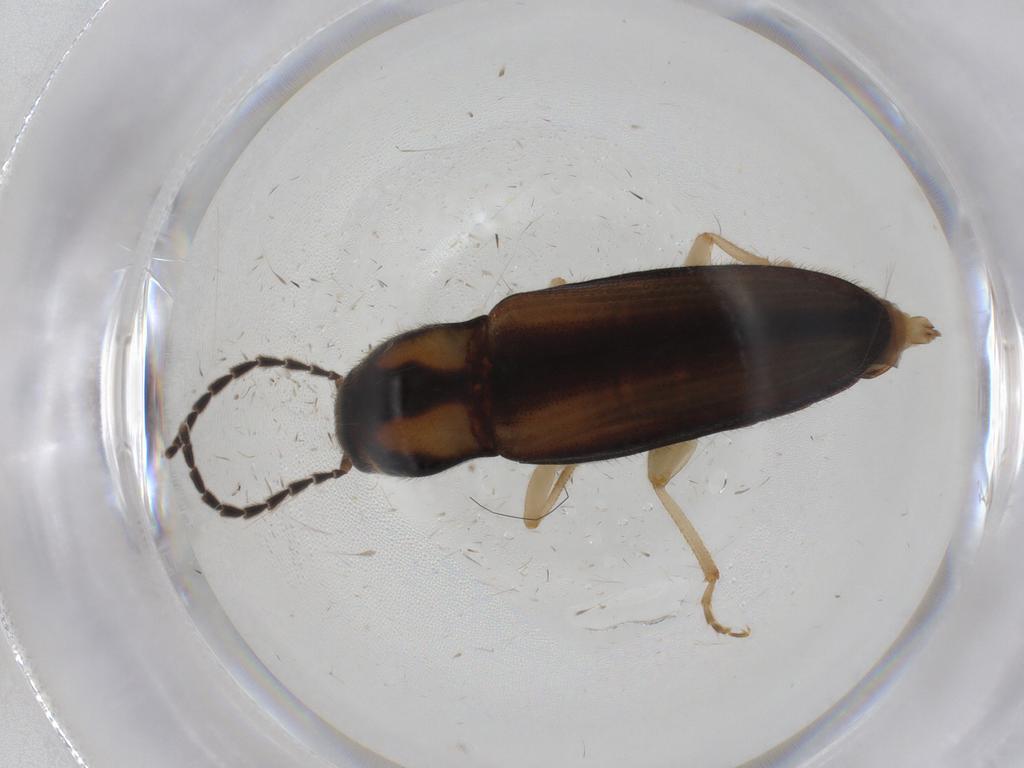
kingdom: Animalia
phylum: Arthropoda
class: Insecta
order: Coleoptera
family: Elateridae
